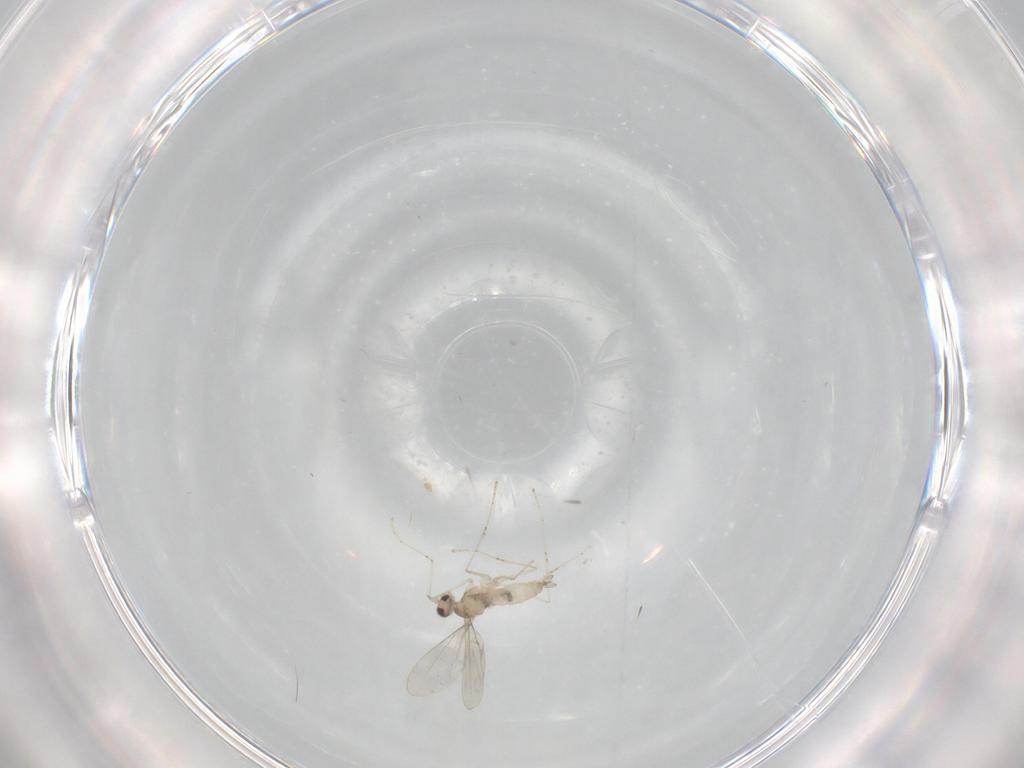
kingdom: Animalia
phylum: Arthropoda
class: Insecta
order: Diptera
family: Cecidomyiidae
